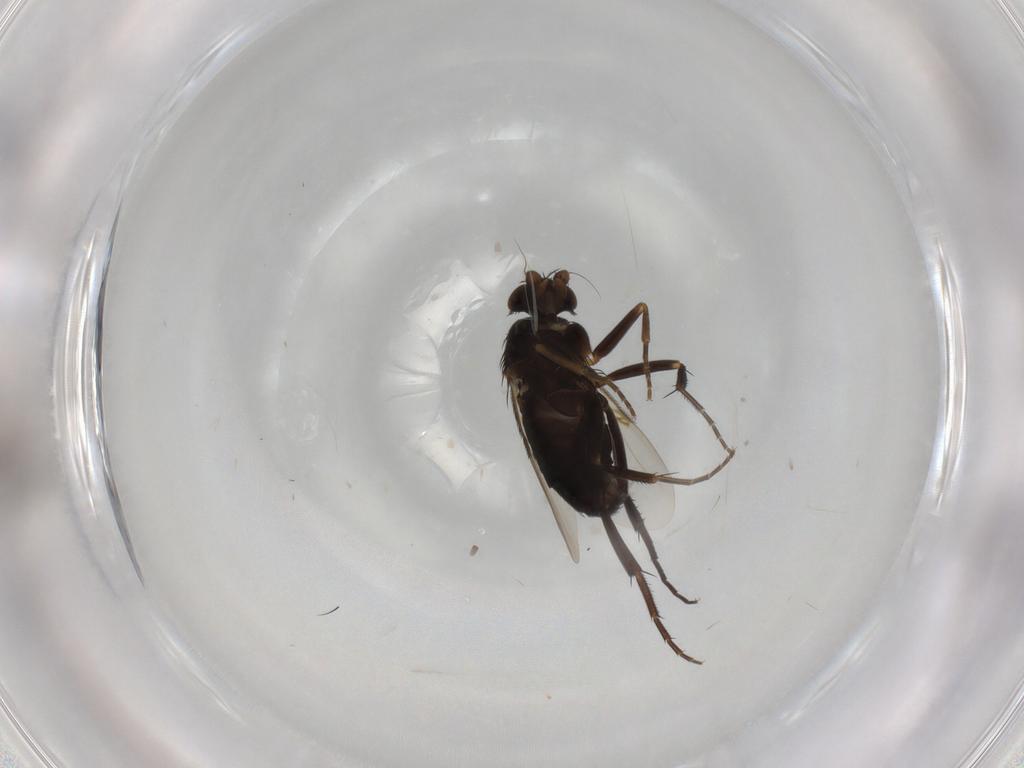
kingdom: Animalia
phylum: Arthropoda
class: Insecta
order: Diptera
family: Phoridae
